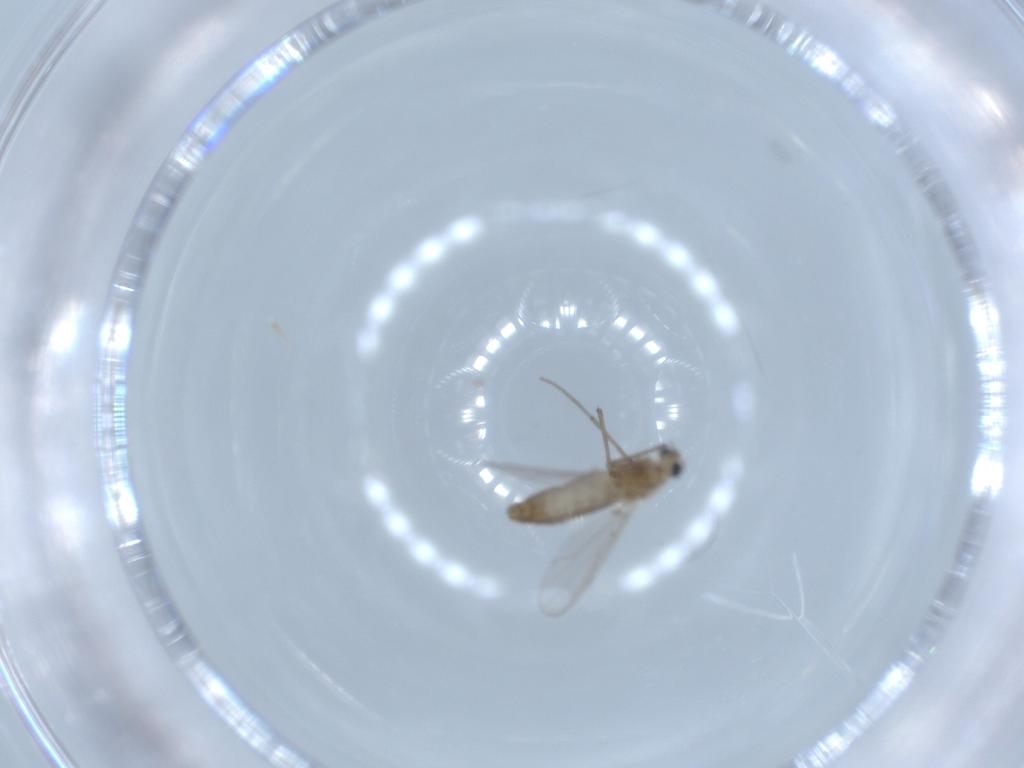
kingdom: Animalia
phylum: Arthropoda
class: Insecta
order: Diptera
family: Chironomidae
